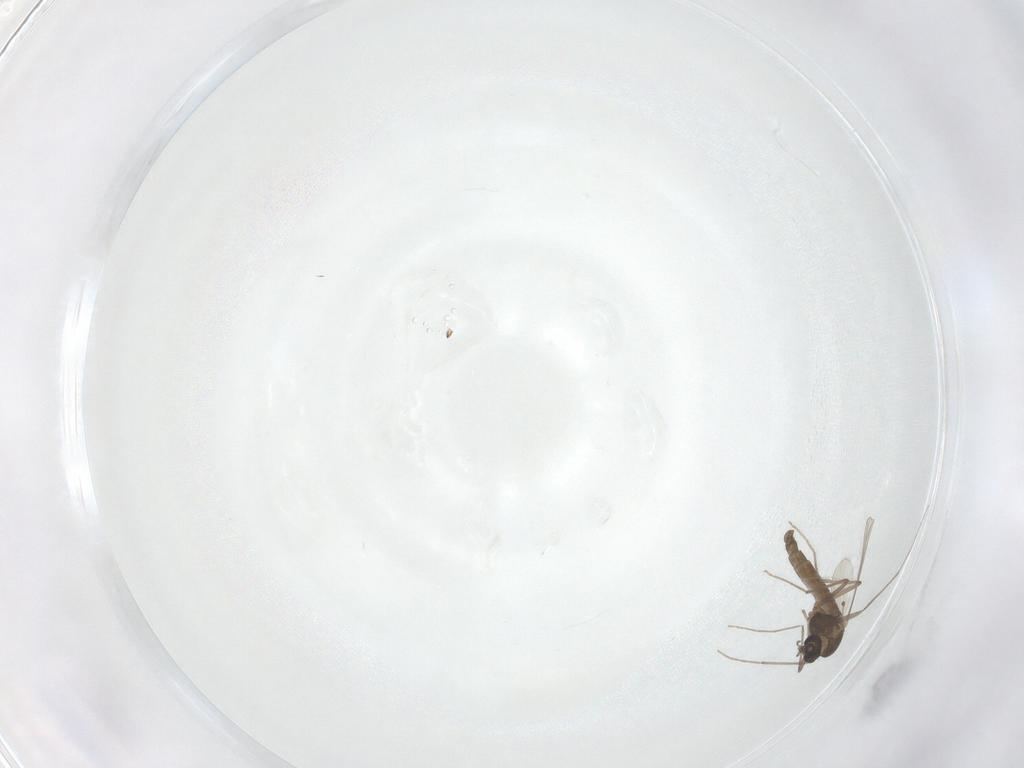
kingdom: Animalia
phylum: Arthropoda
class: Insecta
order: Diptera
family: Chironomidae
